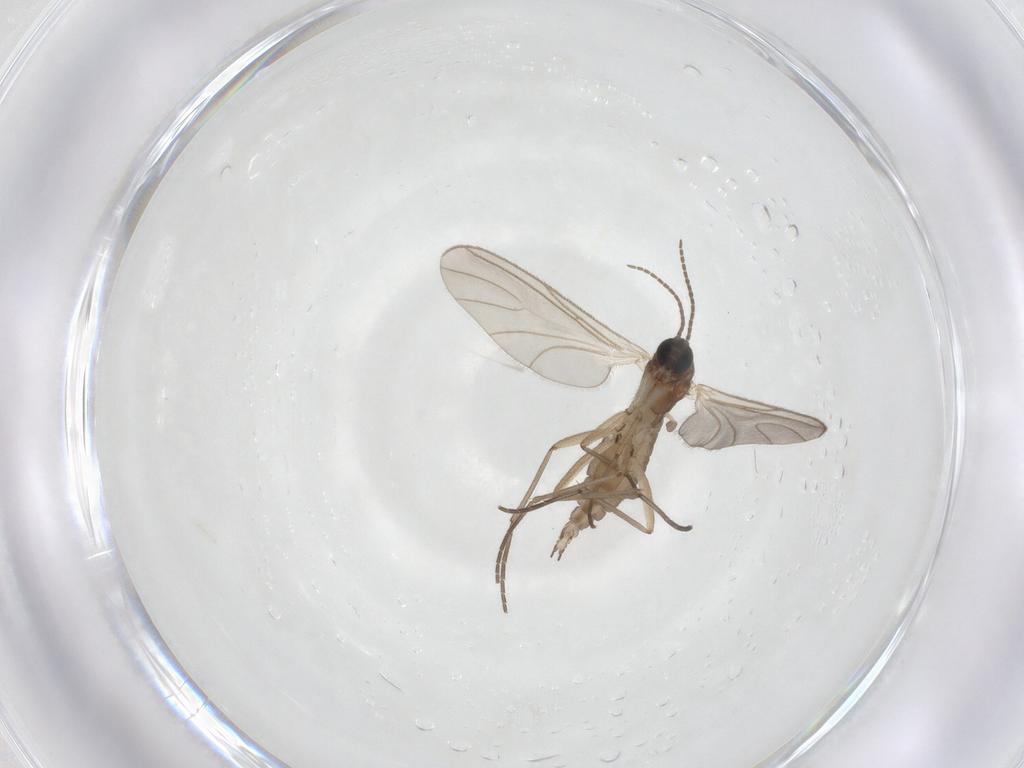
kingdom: Animalia
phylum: Arthropoda
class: Insecta
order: Diptera
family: Sciaridae
